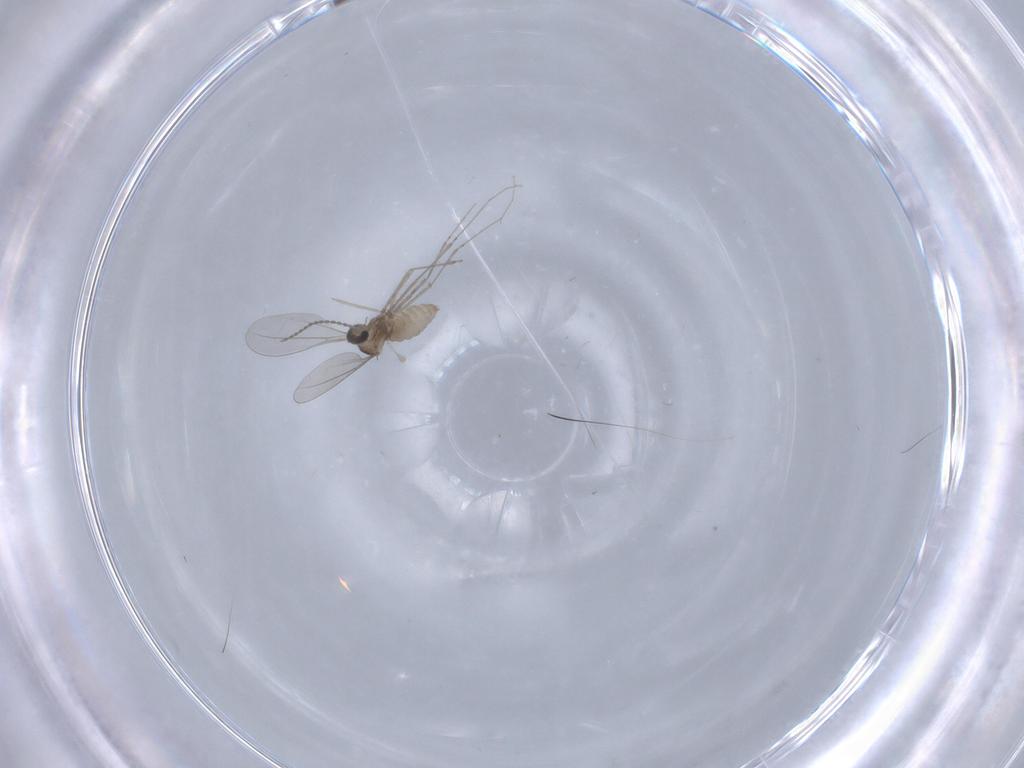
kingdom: Animalia
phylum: Arthropoda
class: Insecta
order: Diptera
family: Cecidomyiidae
